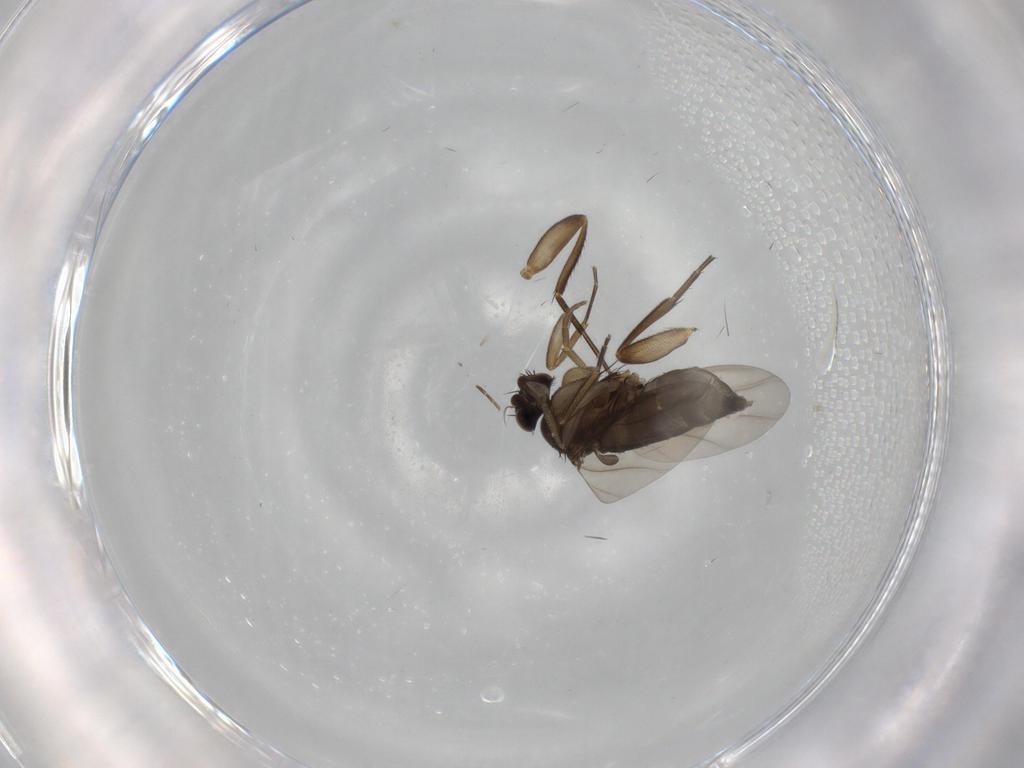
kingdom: Animalia
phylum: Arthropoda
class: Insecta
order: Diptera
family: Phoridae
